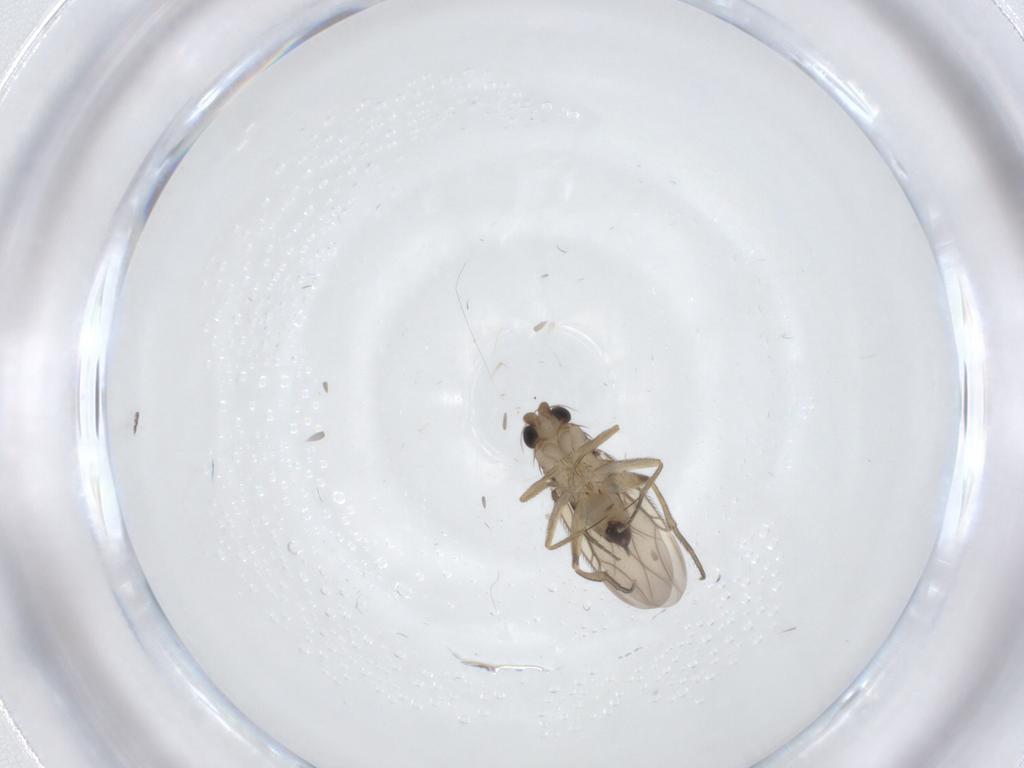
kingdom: Animalia
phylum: Arthropoda
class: Insecta
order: Diptera
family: Phoridae
